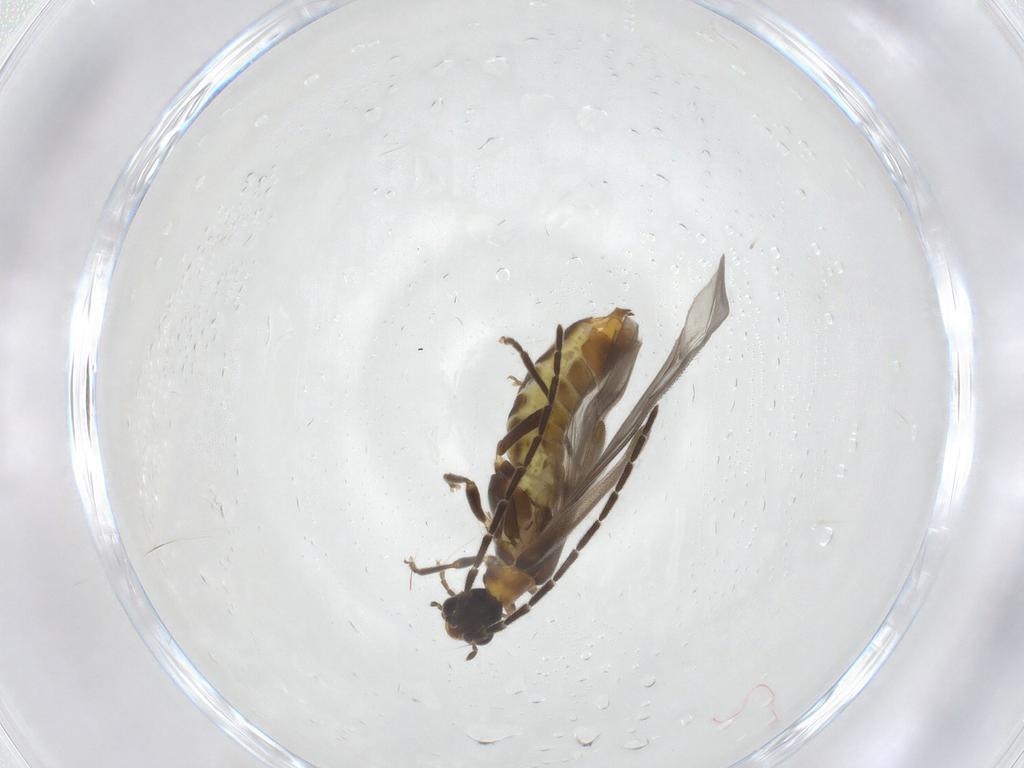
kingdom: Animalia
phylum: Arthropoda
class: Insecta
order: Coleoptera
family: Cantharidae
